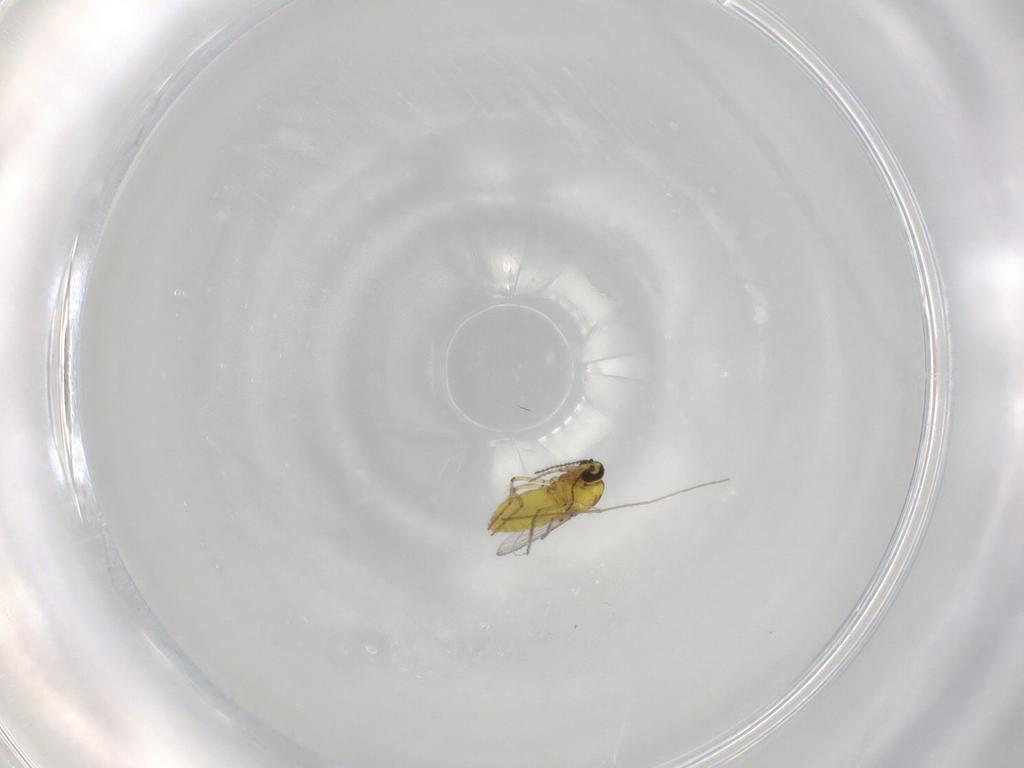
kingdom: Animalia
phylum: Arthropoda
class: Insecta
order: Diptera
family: Chironomidae
